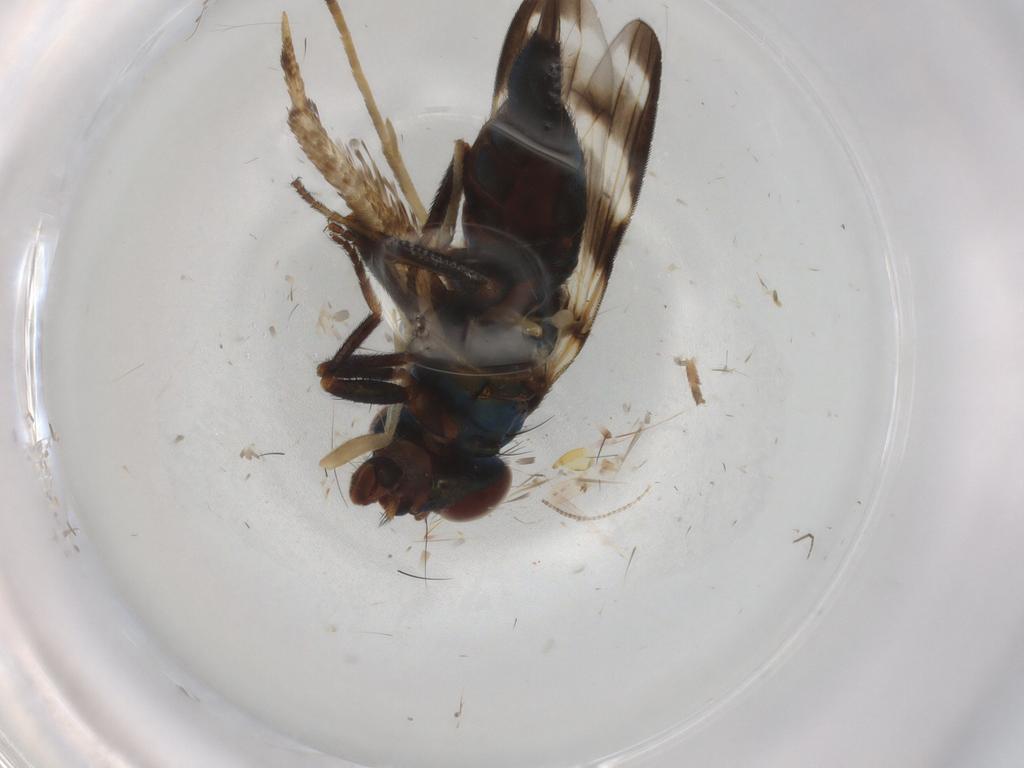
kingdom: Animalia
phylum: Arthropoda
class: Insecta
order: Diptera
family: Ulidiidae
